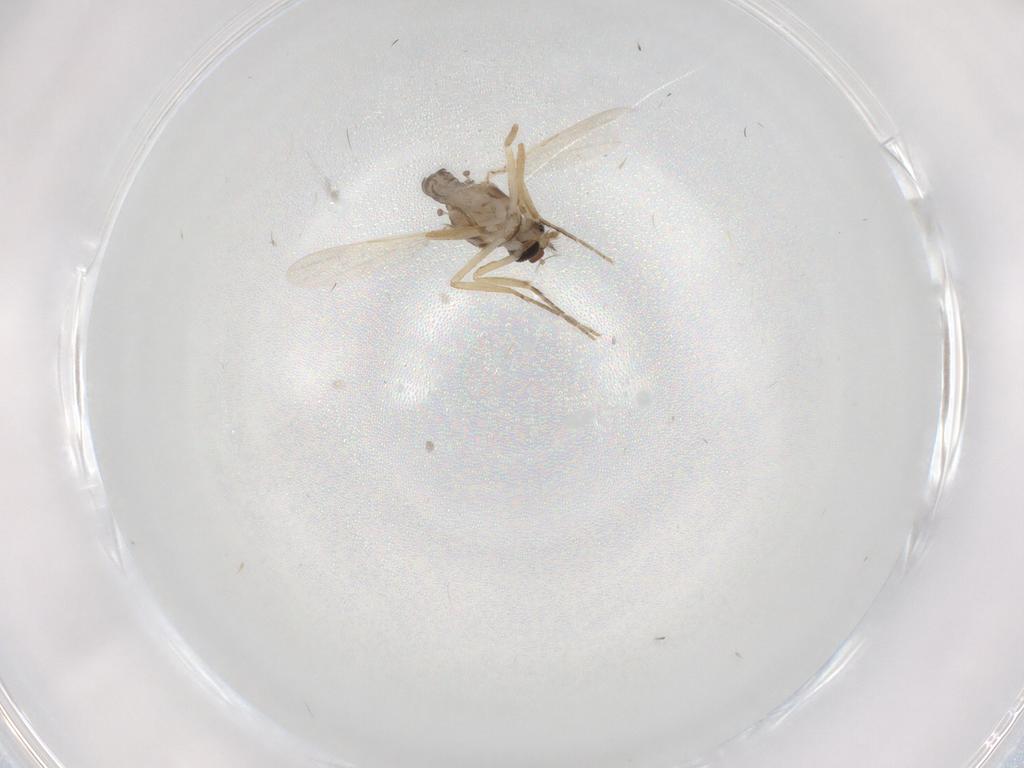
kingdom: Animalia
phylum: Arthropoda
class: Insecta
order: Diptera
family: Ceratopogonidae
